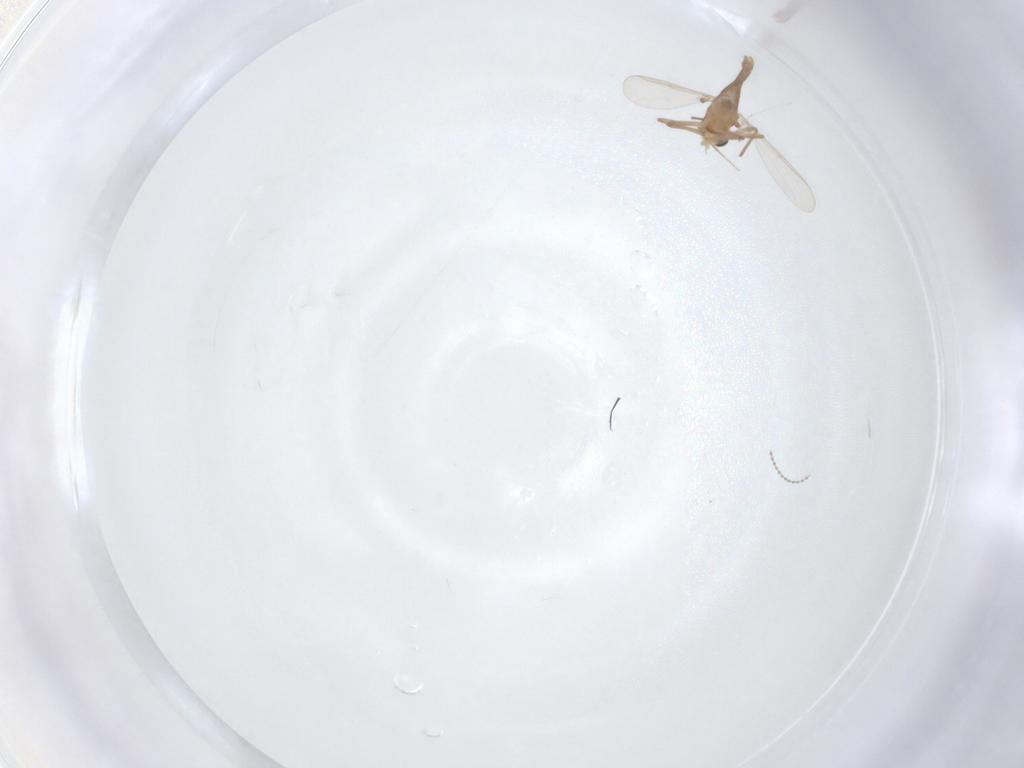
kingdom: Animalia
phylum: Arthropoda
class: Insecta
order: Diptera
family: Chironomidae
